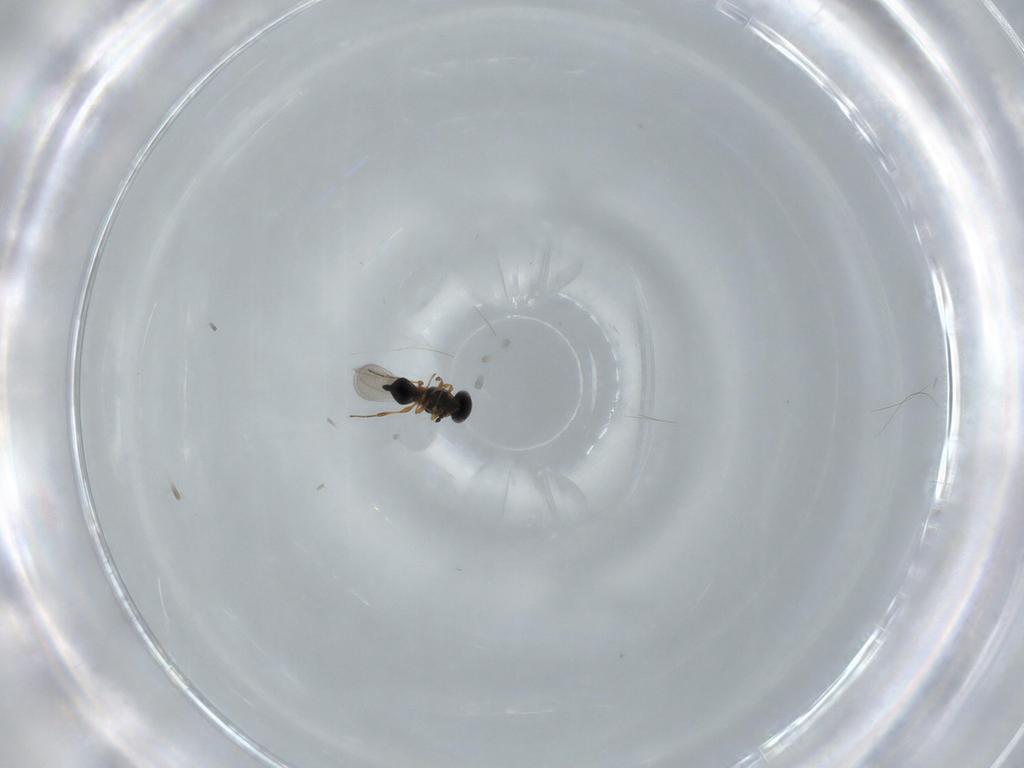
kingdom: Animalia
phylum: Arthropoda
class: Insecta
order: Hymenoptera
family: Platygastridae
